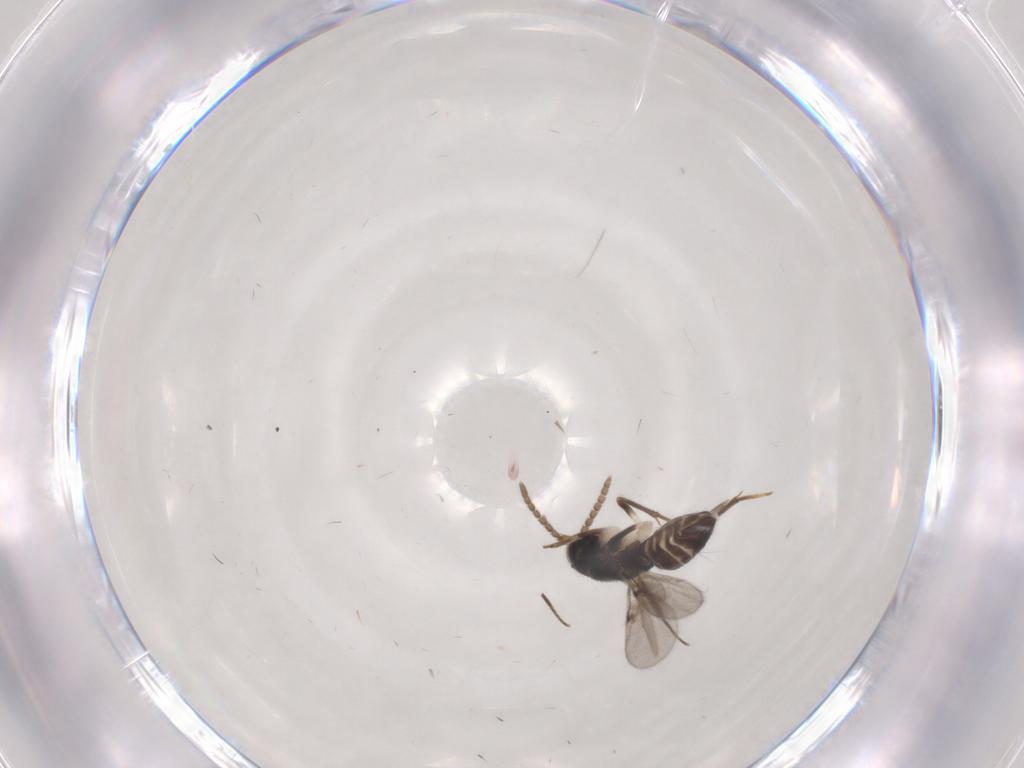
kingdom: Animalia
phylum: Arthropoda
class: Insecta
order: Hymenoptera
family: Encyrtidae
